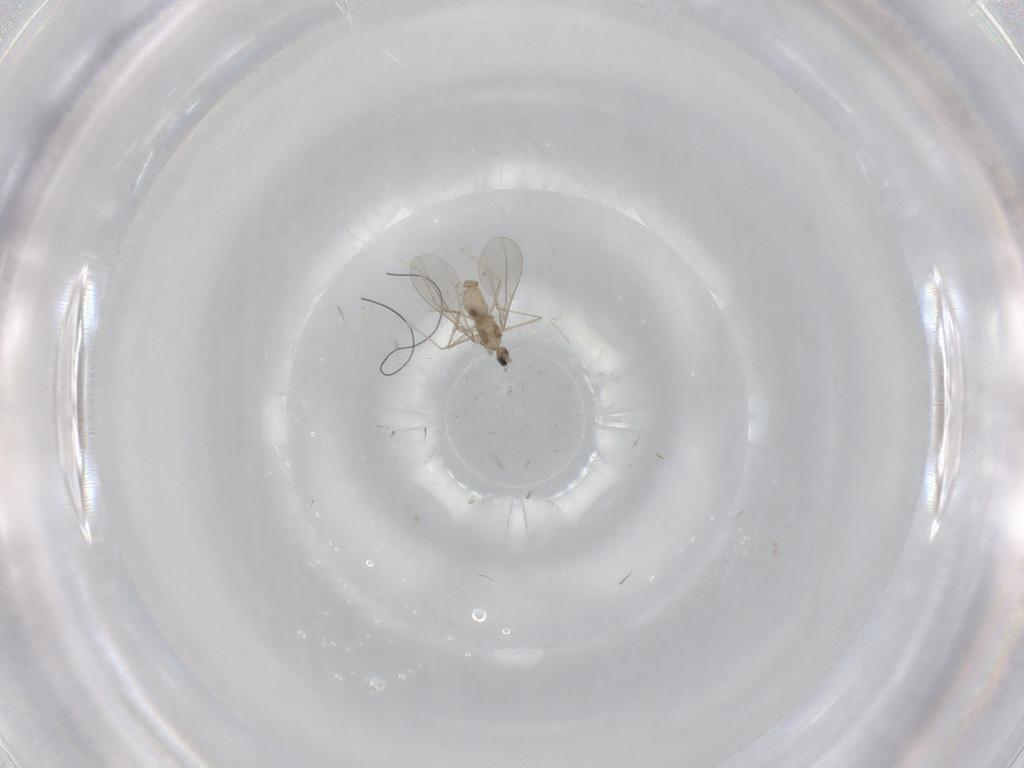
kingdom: Animalia
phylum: Arthropoda
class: Insecta
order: Diptera
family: Cecidomyiidae
